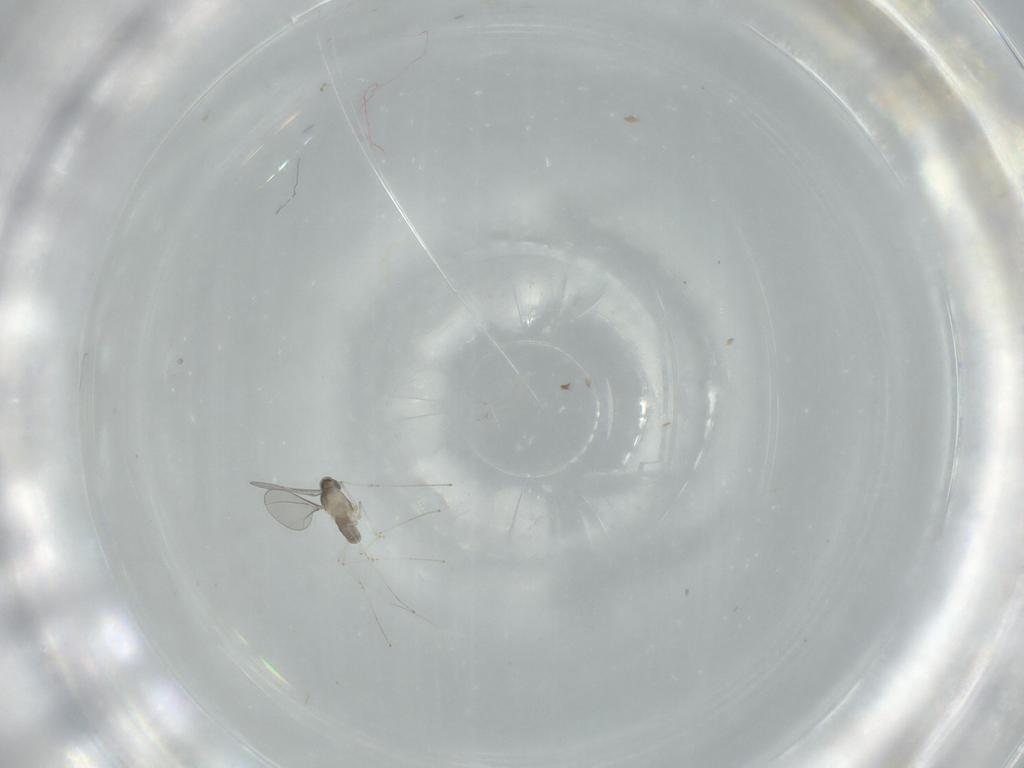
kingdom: Animalia
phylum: Arthropoda
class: Insecta
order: Diptera
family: Cecidomyiidae
